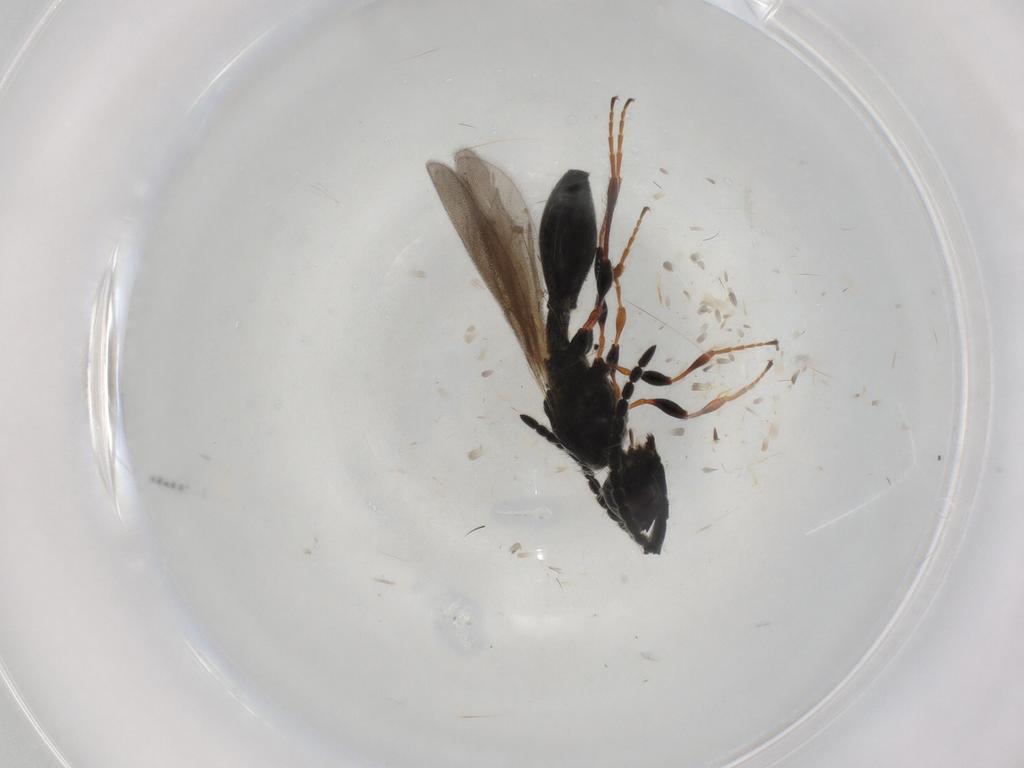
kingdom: Animalia
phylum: Arthropoda
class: Insecta
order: Hymenoptera
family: Diapriidae
